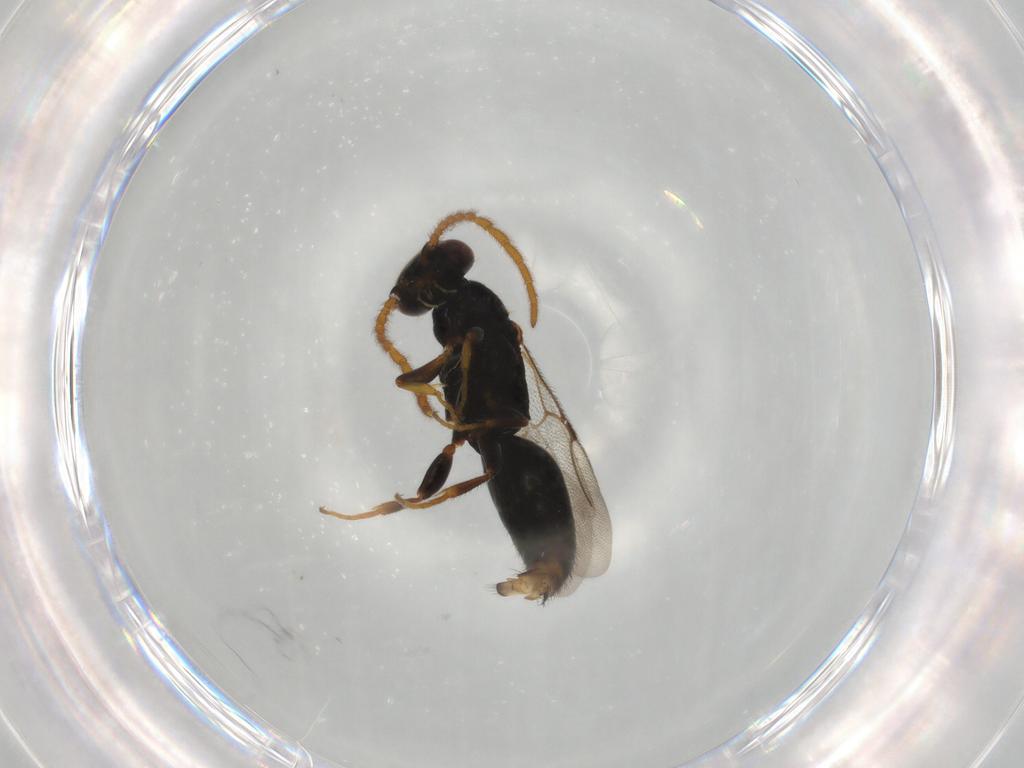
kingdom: Animalia
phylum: Arthropoda
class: Insecta
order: Hymenoptera
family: Bethylidae
